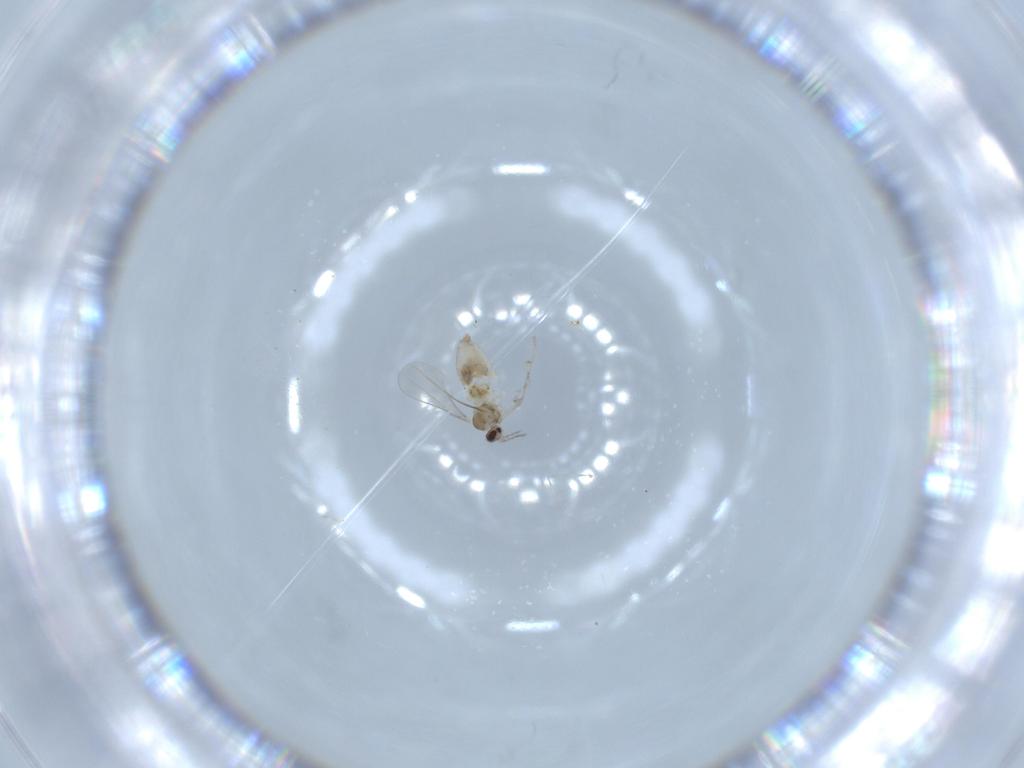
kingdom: Animalia
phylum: Arthropoda
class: Insecta
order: Diptera
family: Cecidomyiidae
